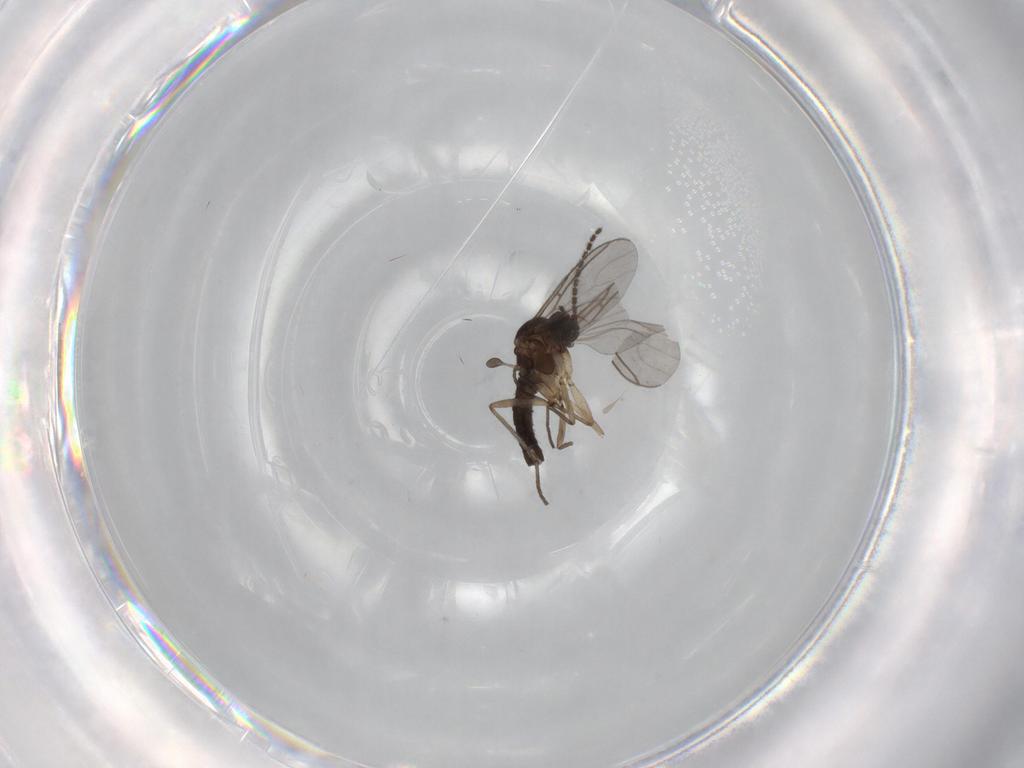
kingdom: Animalia
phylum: Arthropoda
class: Insecta
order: Diptera
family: Sciaridae
